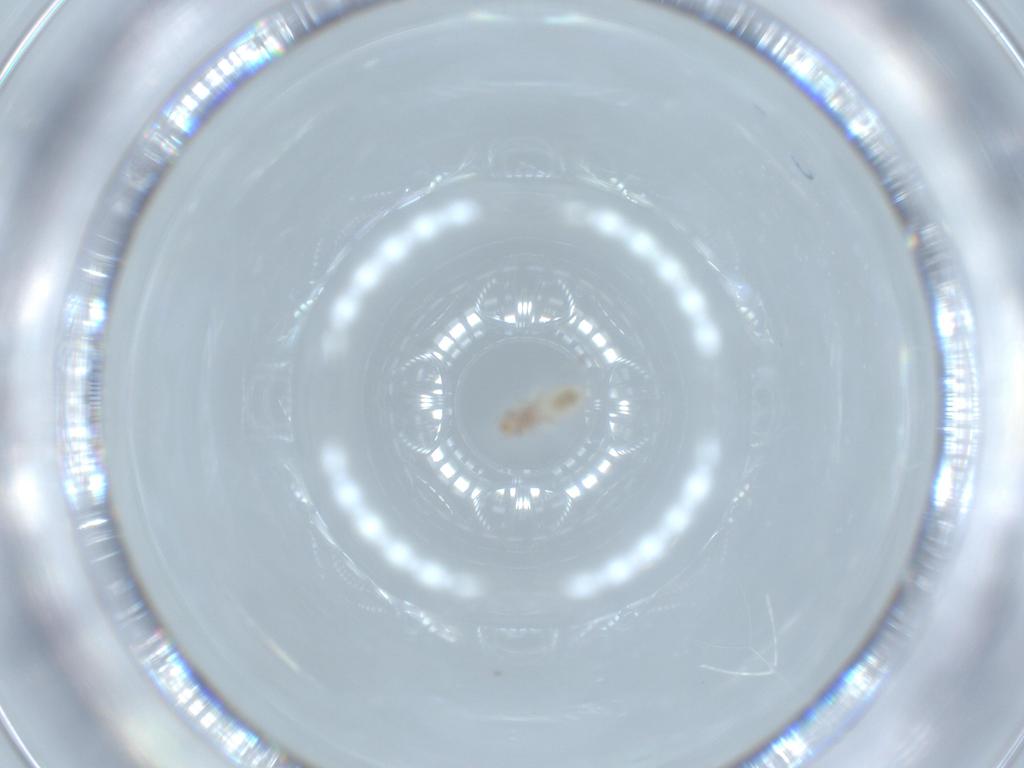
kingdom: Animalia
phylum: Arthropoda
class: Insecta
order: Psocodea
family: Liposcelididae
